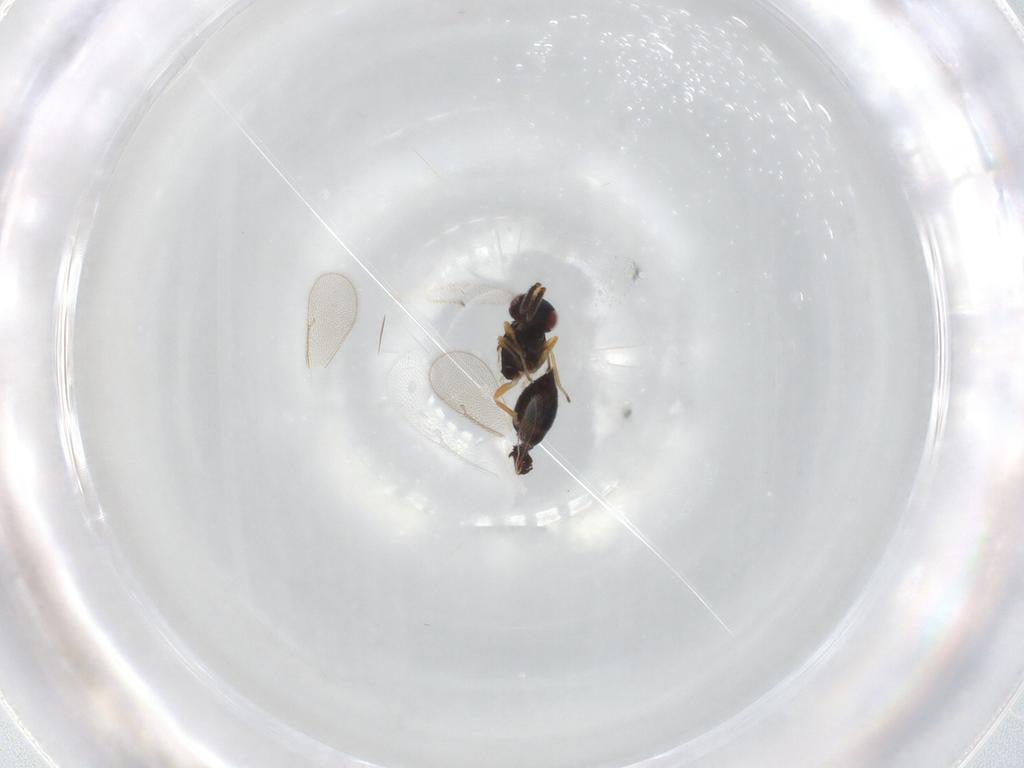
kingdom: Animalia
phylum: Arthropoda
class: Insecta
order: Hymenoptera
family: Eulophidae
